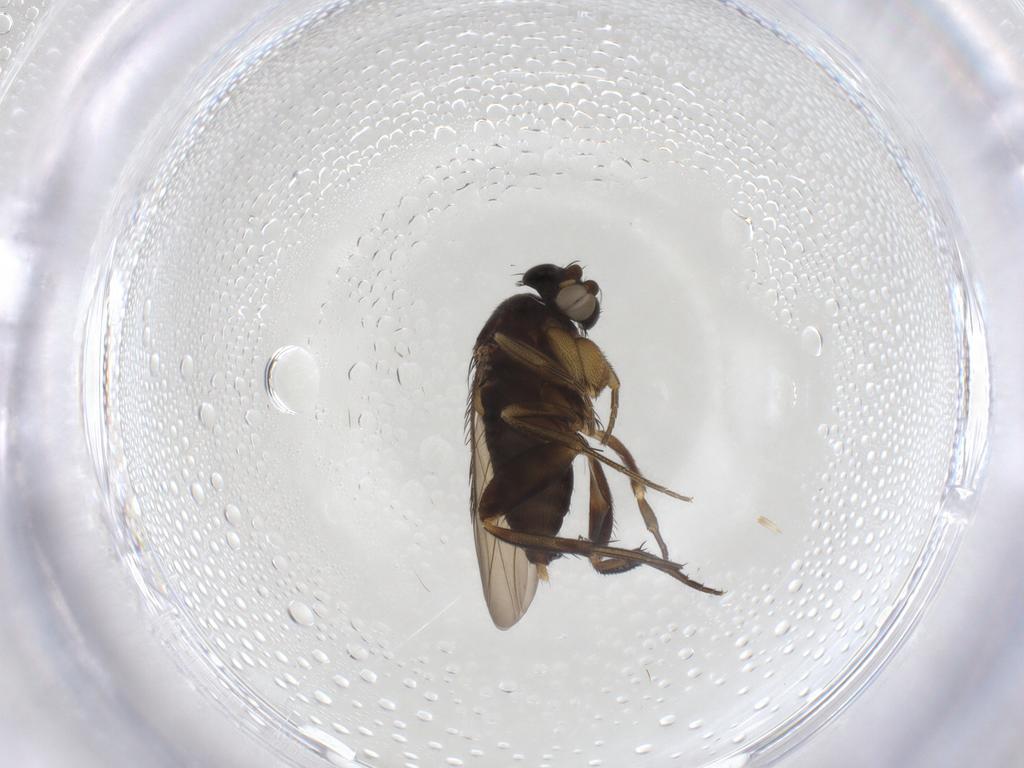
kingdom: Animalia
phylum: Arthropoda
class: Insecta
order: Diptera
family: Phoridae
